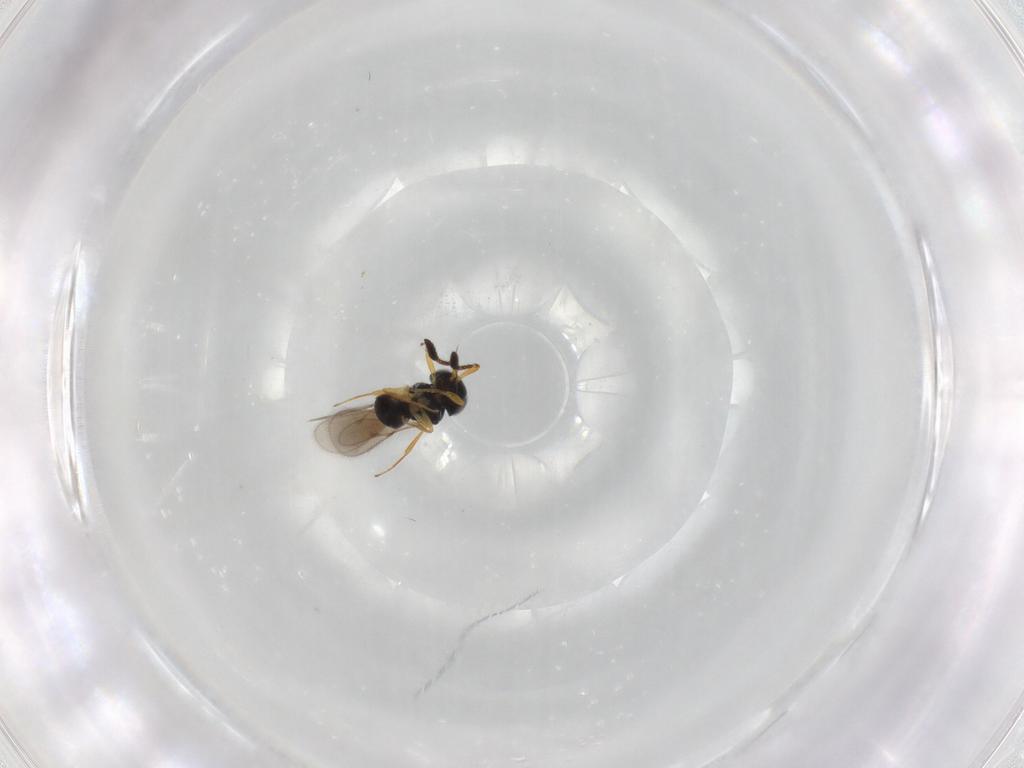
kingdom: Animalia
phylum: Arthropoda
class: Insecta
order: Hymenoptera
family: Scelionidae
